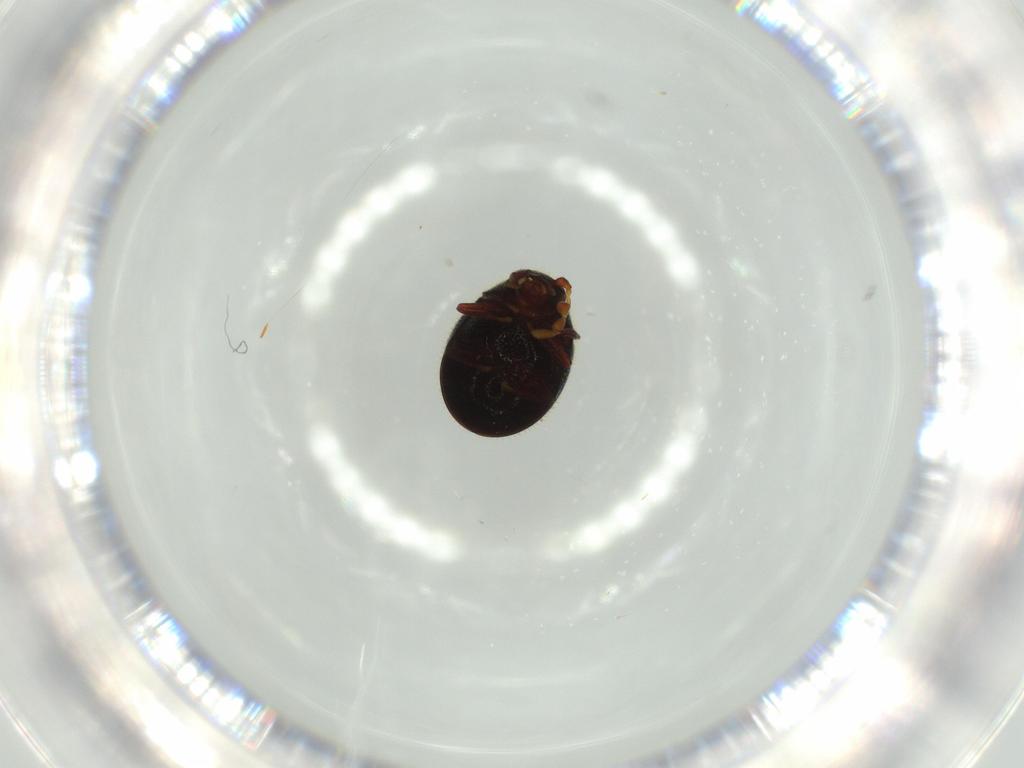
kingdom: Animalia
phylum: Arthropoda
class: Insecta
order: Coleoptera
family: Ptinidae
